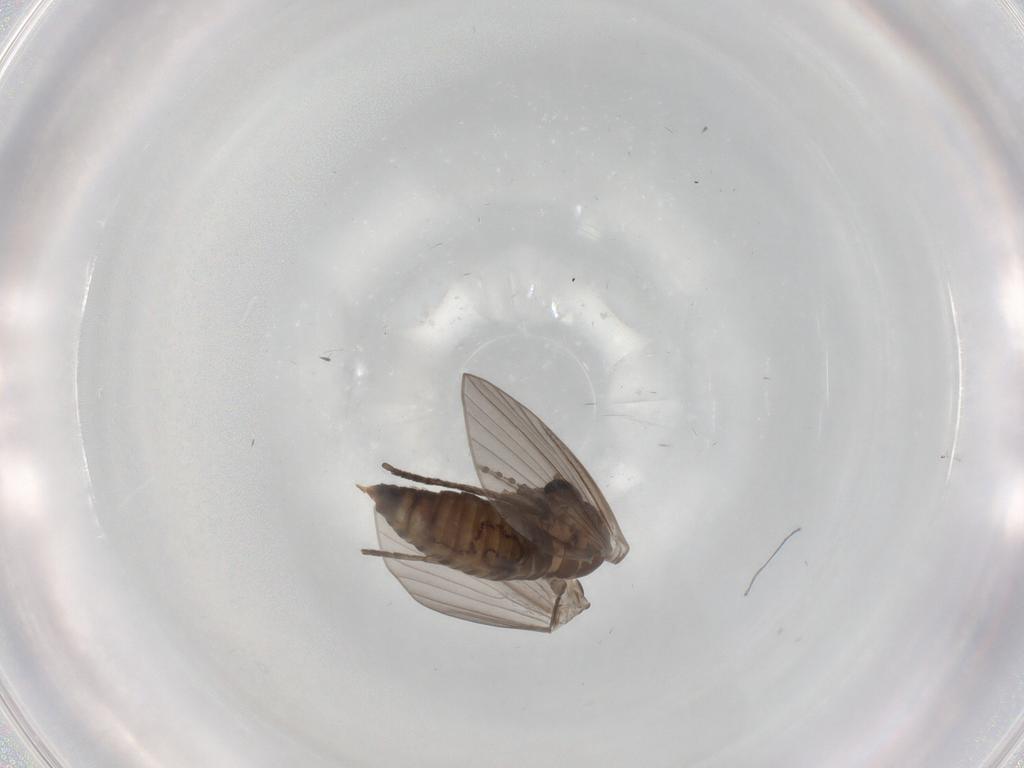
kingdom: Animalia
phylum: Arthropoda
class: Insecta
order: Diptera
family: Psychodidae
